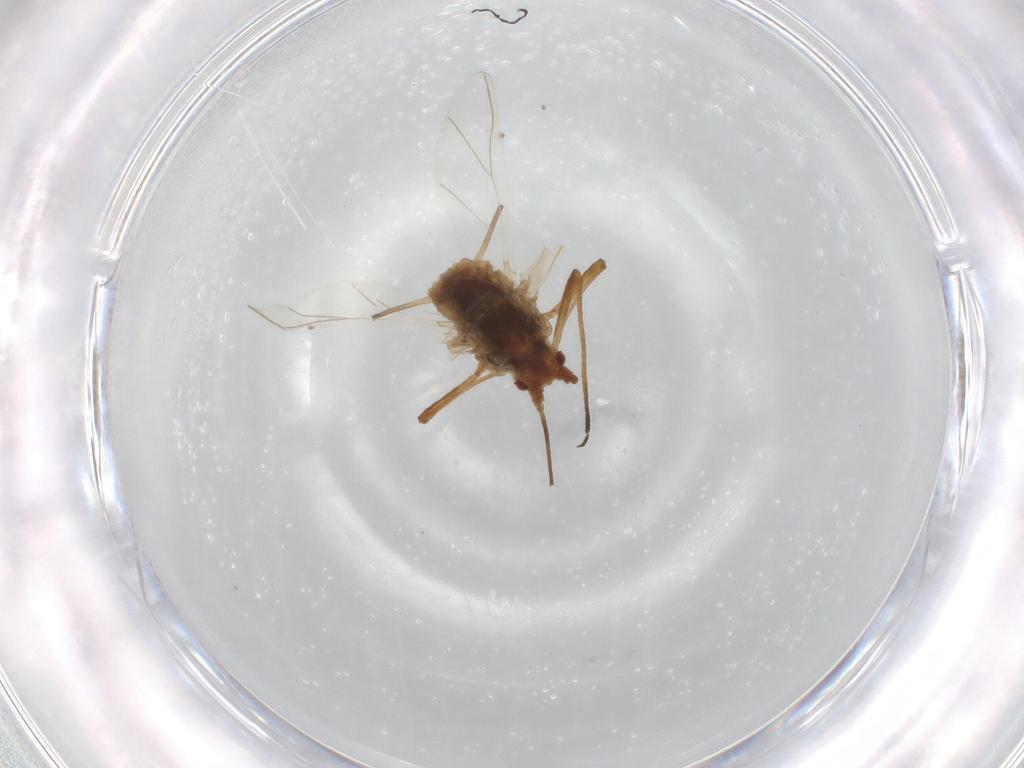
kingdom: Animalia
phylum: Arthropoda
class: Insecta
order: Hemiptera
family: Aphididae
